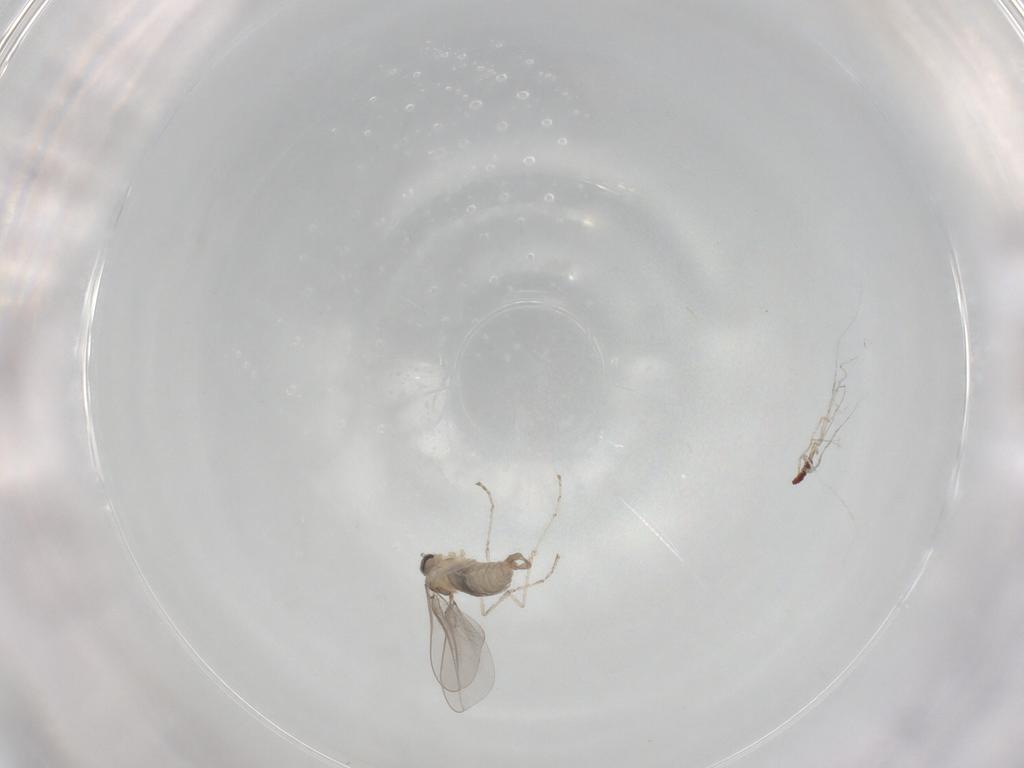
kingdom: Animalia
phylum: Arthropoda
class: Insecta
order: Diptera
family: Cecidomyiidae
